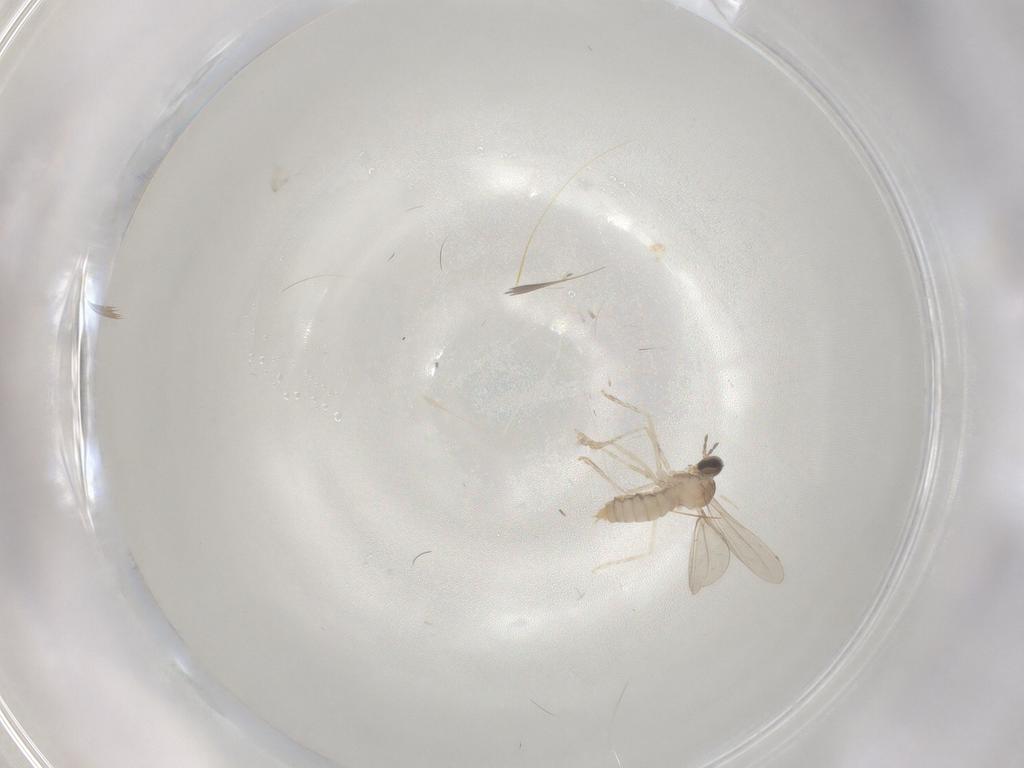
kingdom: Animalia
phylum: Arthropoda
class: Insecta
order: Diptera
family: Cecidomyiidae
